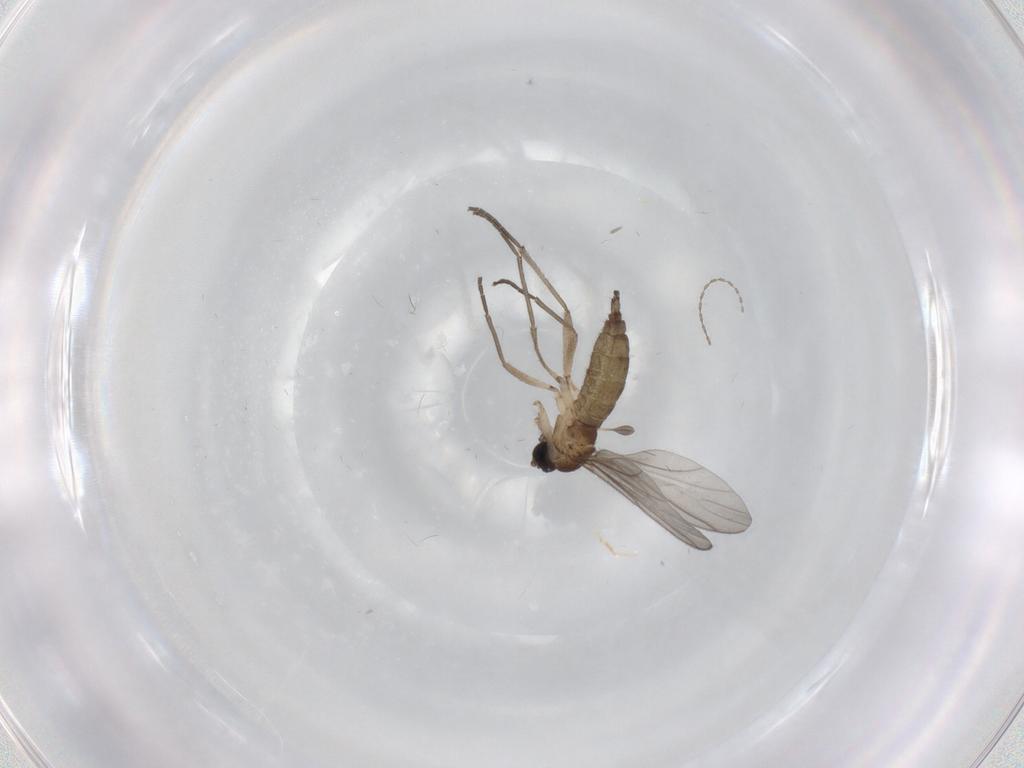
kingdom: Animalia
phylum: Arthropoda
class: Insecta
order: Diptera
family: Sciaridae
